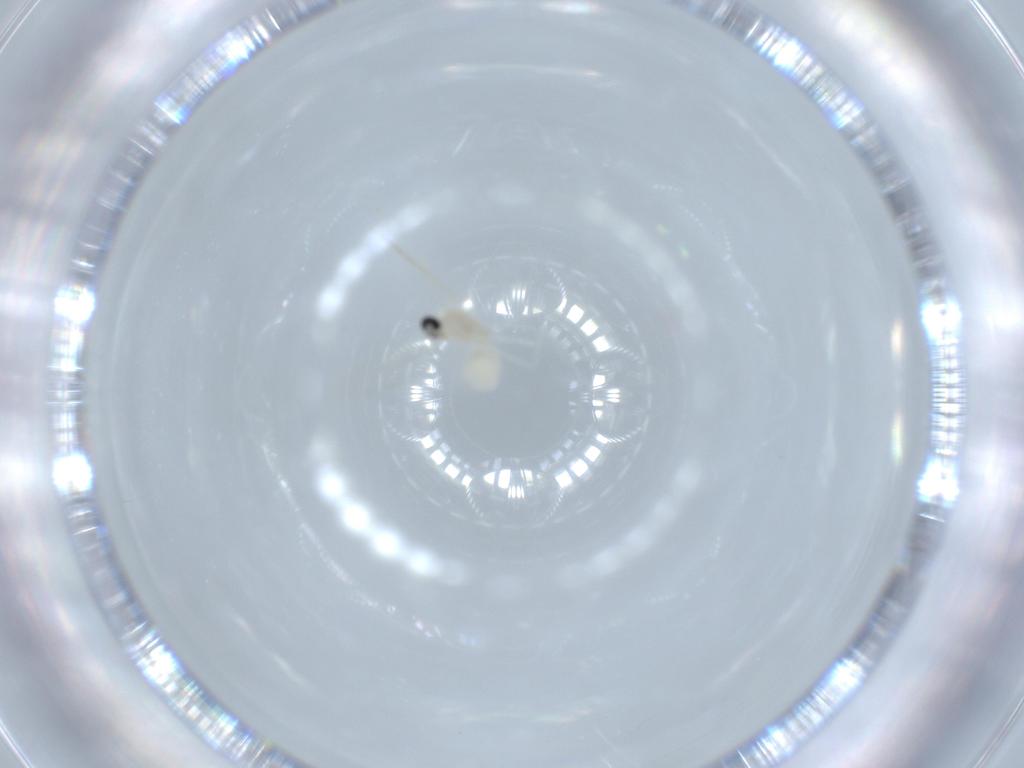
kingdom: Animalia
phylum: Arthropoda
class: Insecta
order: Diptera
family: Cecidomyiidae
